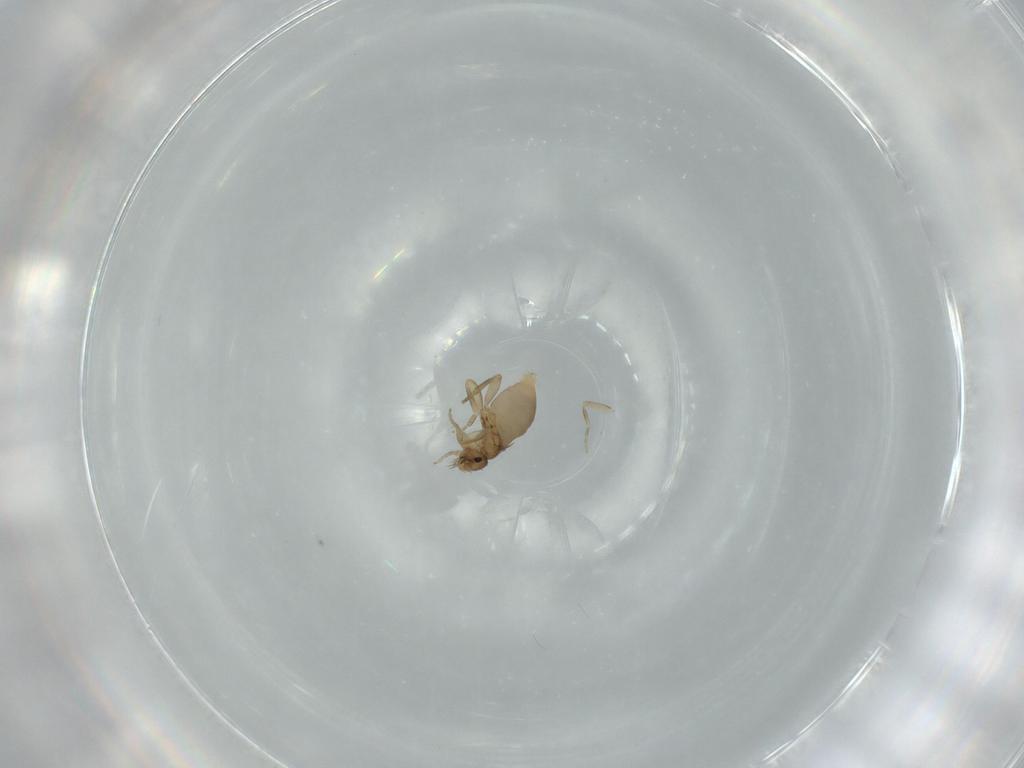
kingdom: Animalia
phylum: Arthropoda
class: Insecta
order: Diptera
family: Phoridae
